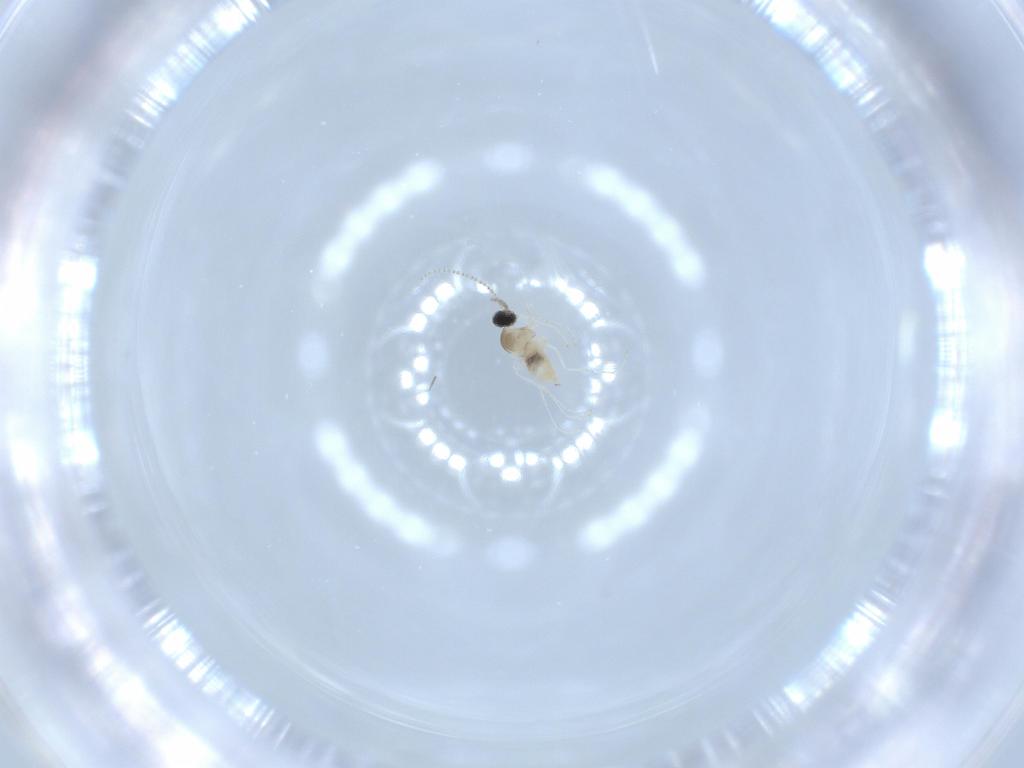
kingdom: Animalia
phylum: Arthropoda
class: Insecta
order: Diptera
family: Cecidomyiidae
